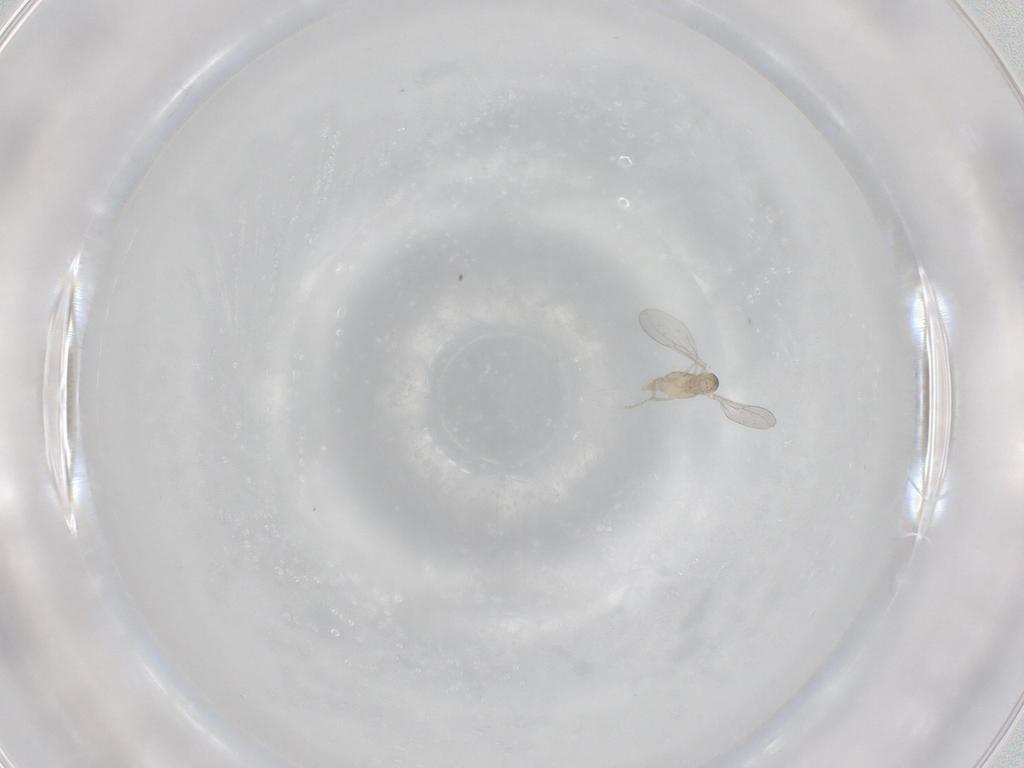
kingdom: Animalia
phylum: Arthropoda
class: Insecta
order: Diptera
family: Cecidomyiidae
